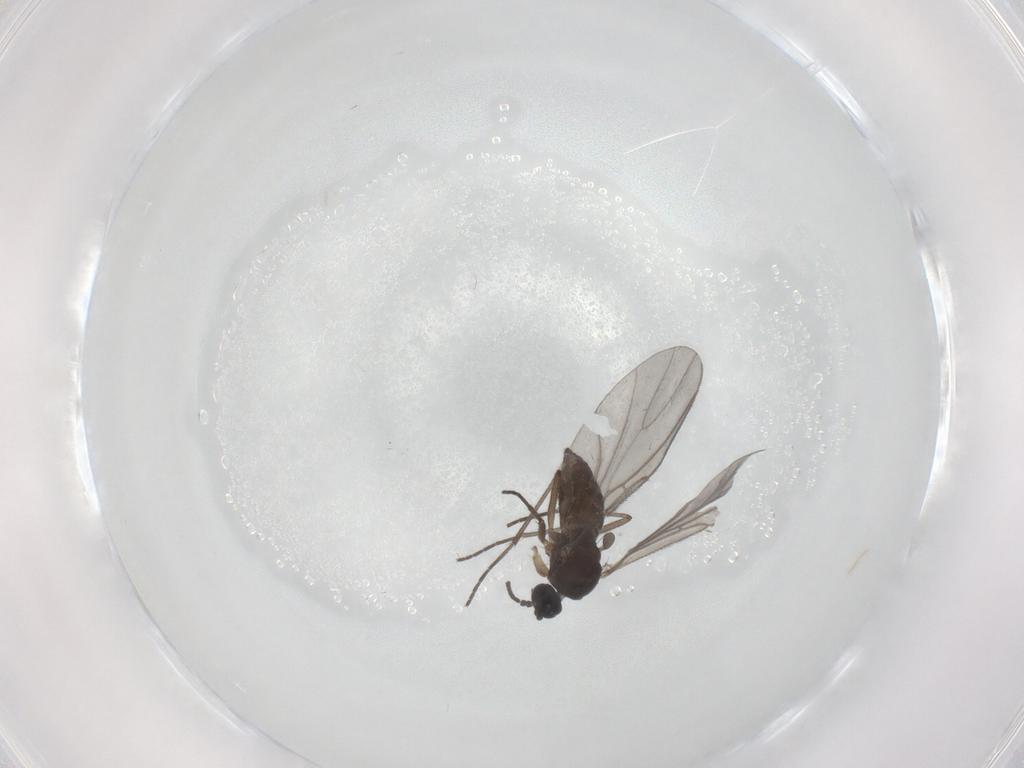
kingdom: Animalia
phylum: Arthropoda
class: Insecta
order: Diptera
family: Sciaridae
